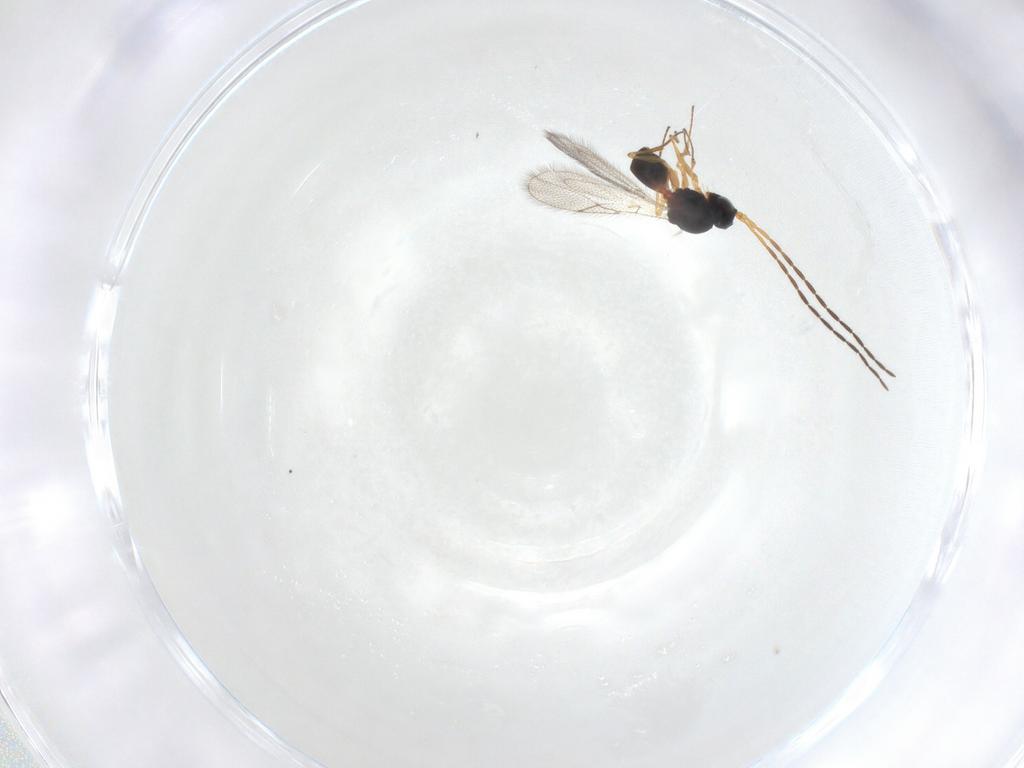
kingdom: Animalia
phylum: Arthropoda
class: Insecta
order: Hymenoptera
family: Figitidae
